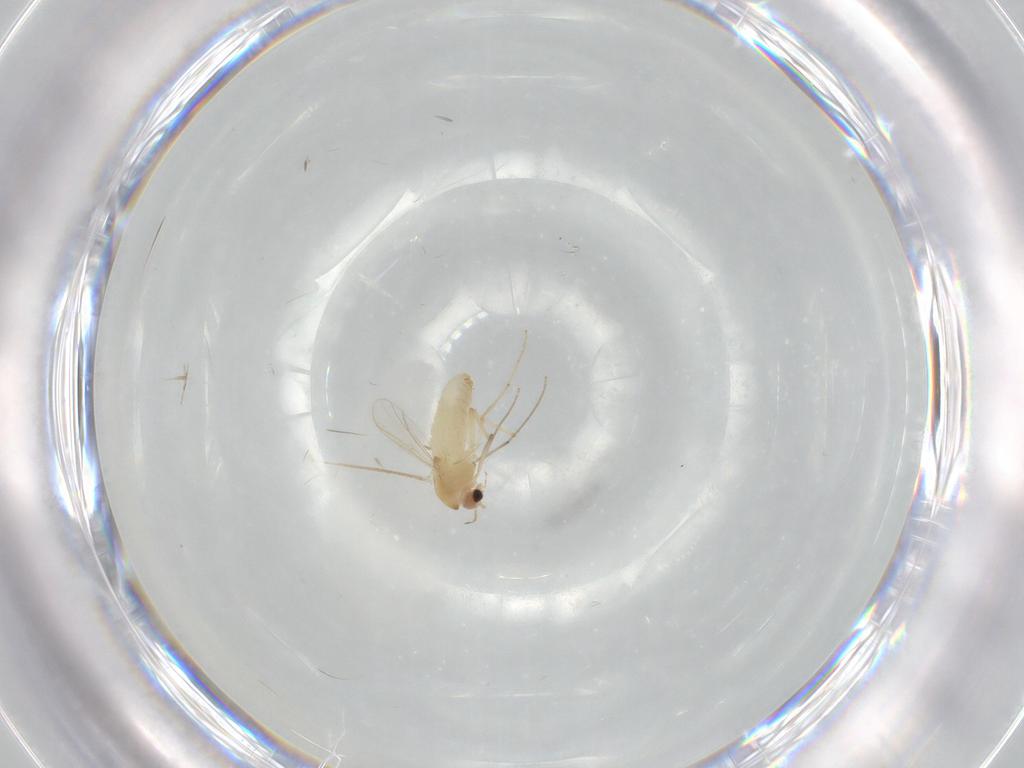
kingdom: Animalia
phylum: Arthropoda
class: Insecta
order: Diptera
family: Chironomidae
